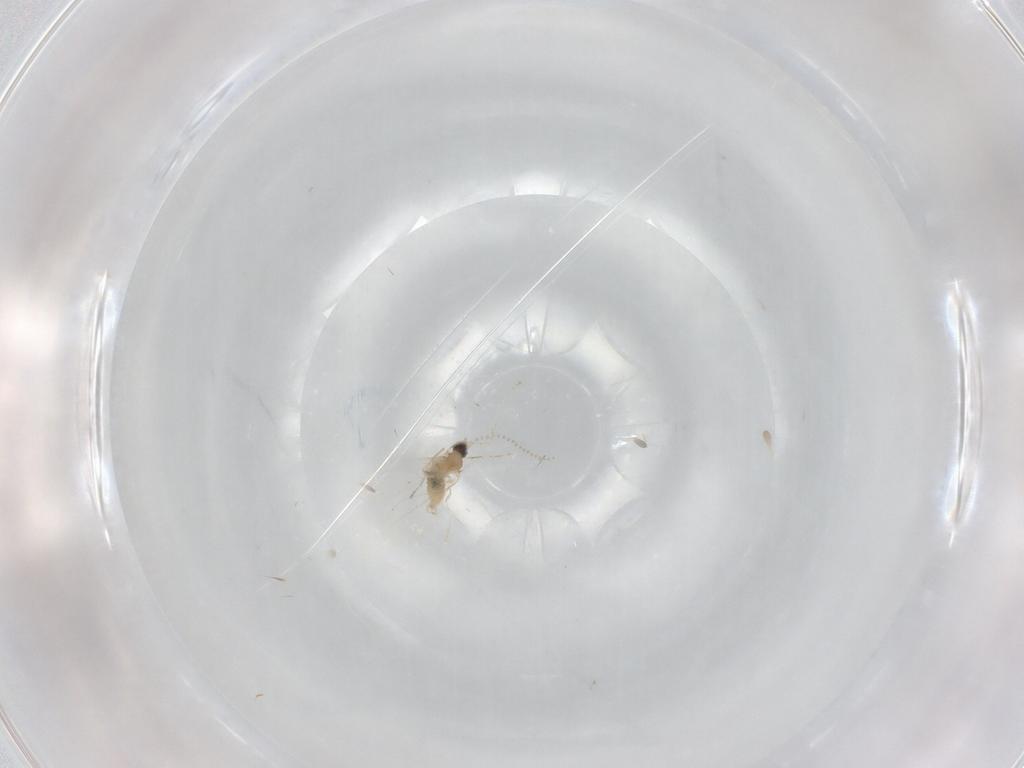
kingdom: Animalia
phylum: Arthropoda
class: Insecta
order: Diptera
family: Cecidomyiidae
